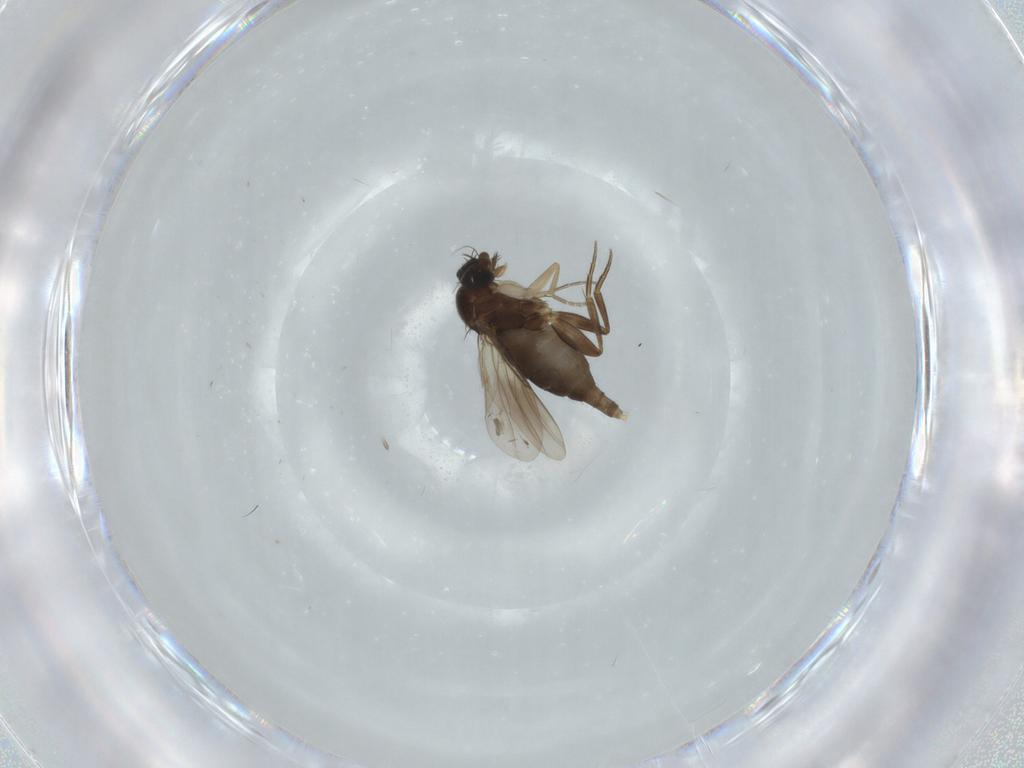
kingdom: Animalia
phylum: Arthropoda
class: Insecta
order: Diptera
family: Phoridae
